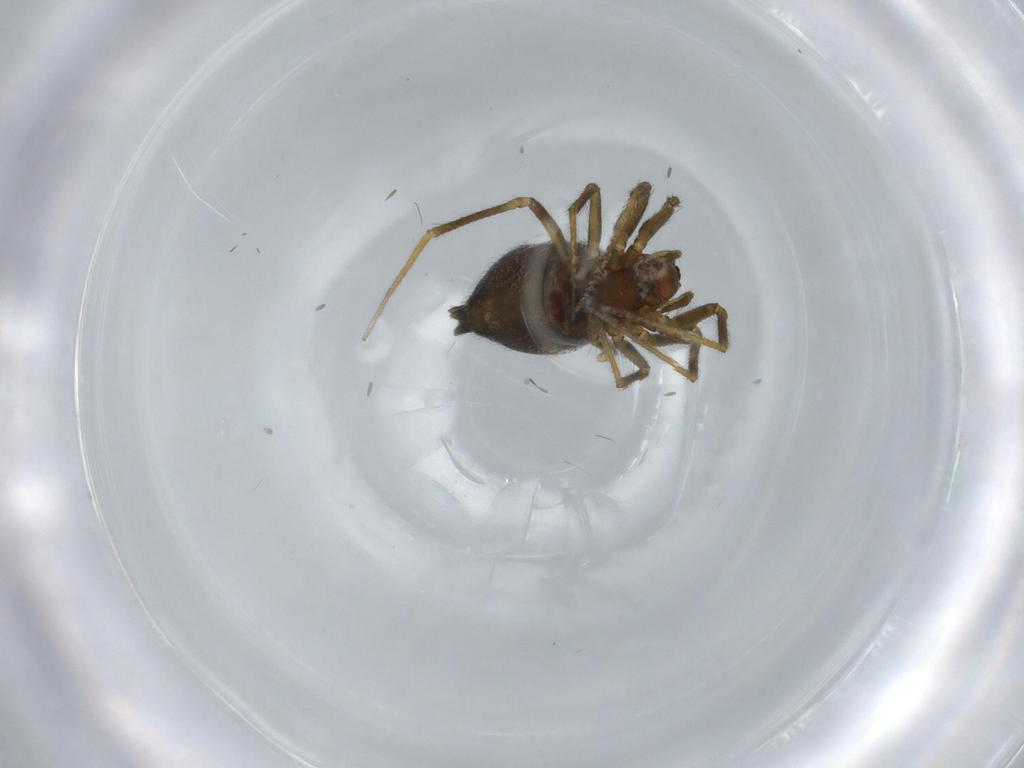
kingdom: Animalia
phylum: Arthropoda
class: Arachnida
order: Araneae
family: Linyphiidae
